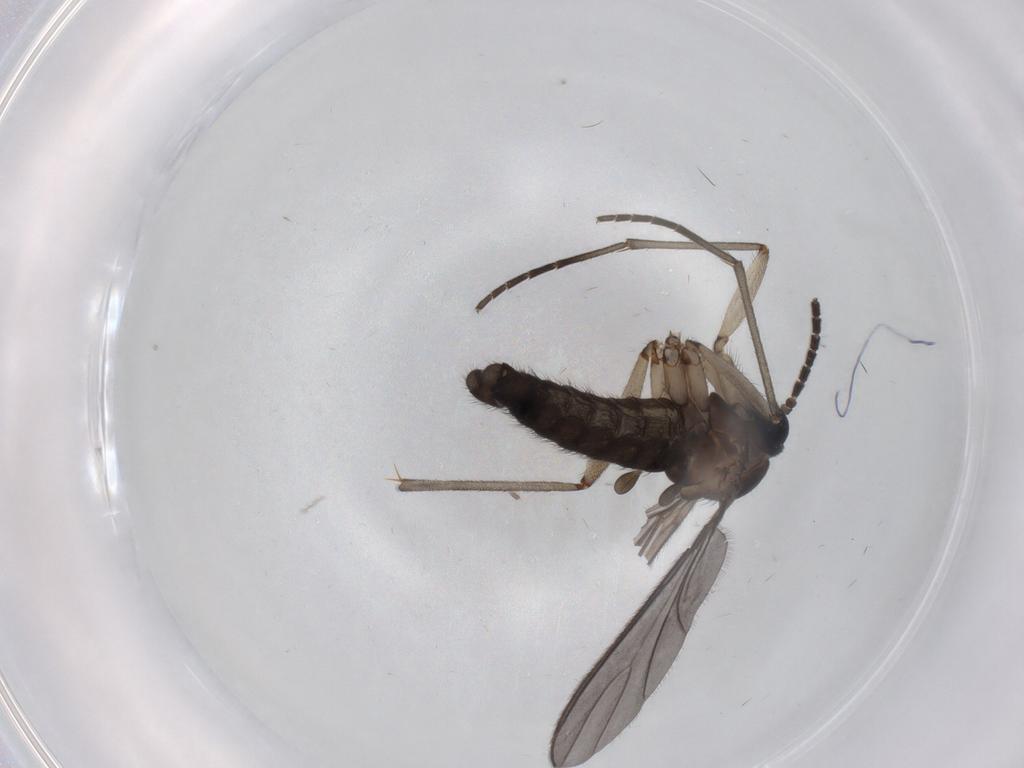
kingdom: Animalia
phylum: Arthropoda
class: Insecta
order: Diptera
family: Sciaridae
